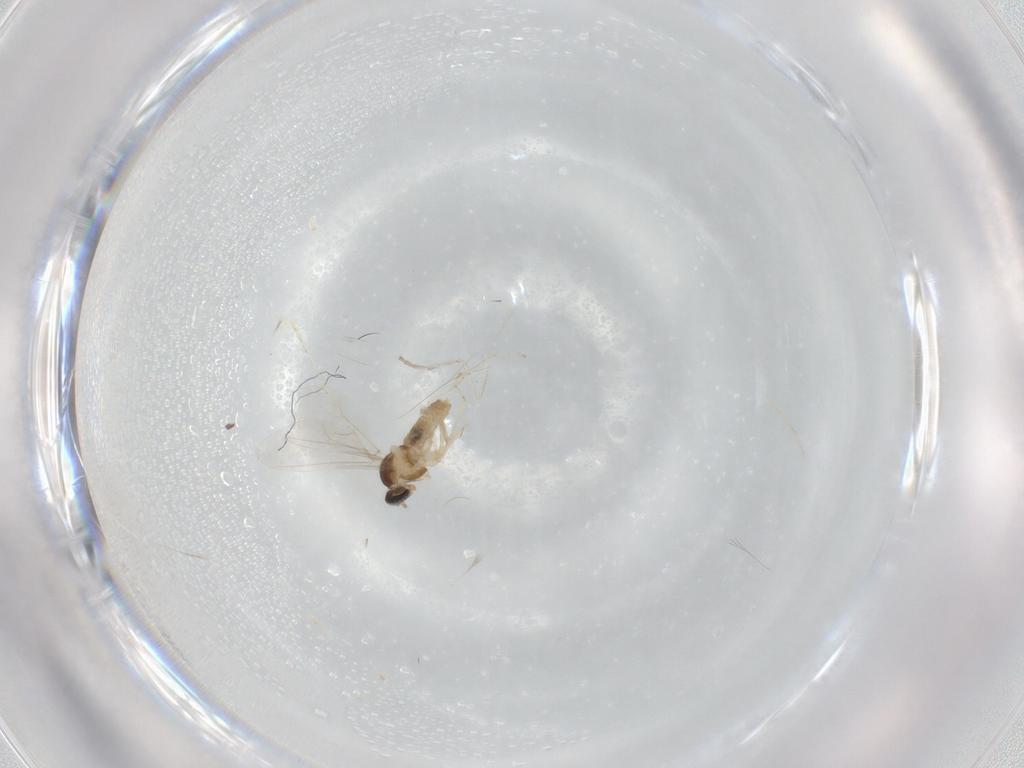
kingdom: Animalia
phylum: Arthropoda
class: Insecta
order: Diptera
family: Cecidomyiidae
